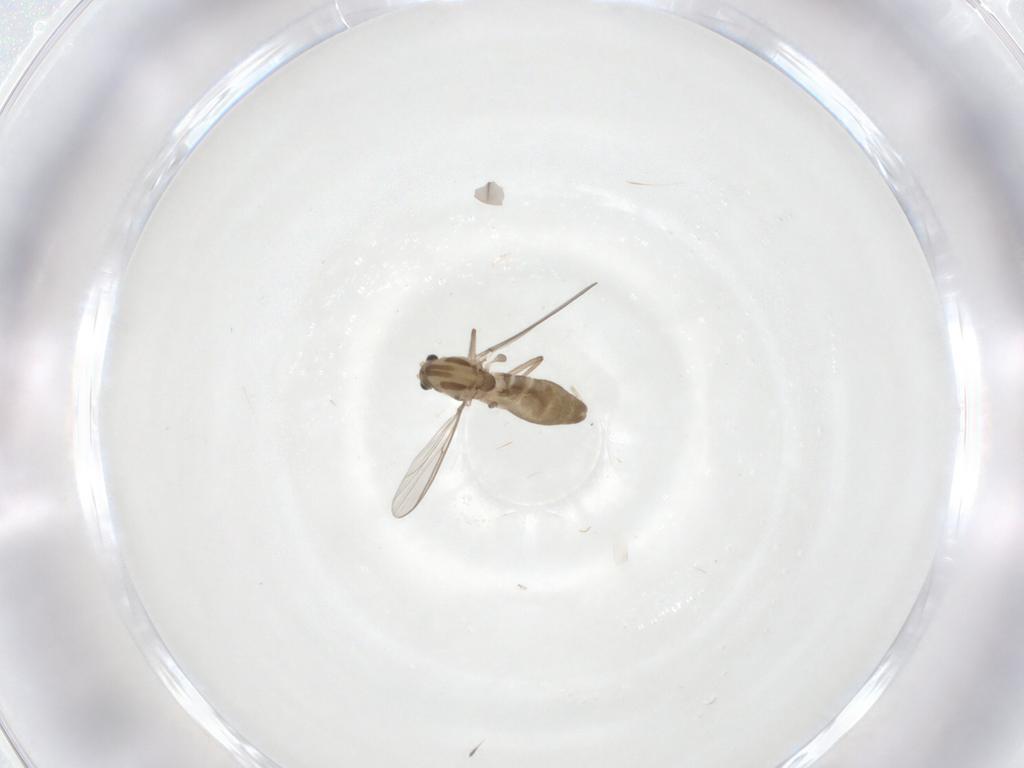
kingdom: Animalia
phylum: Arthropoda
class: Insecta
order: Diptera
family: Chironomidae
